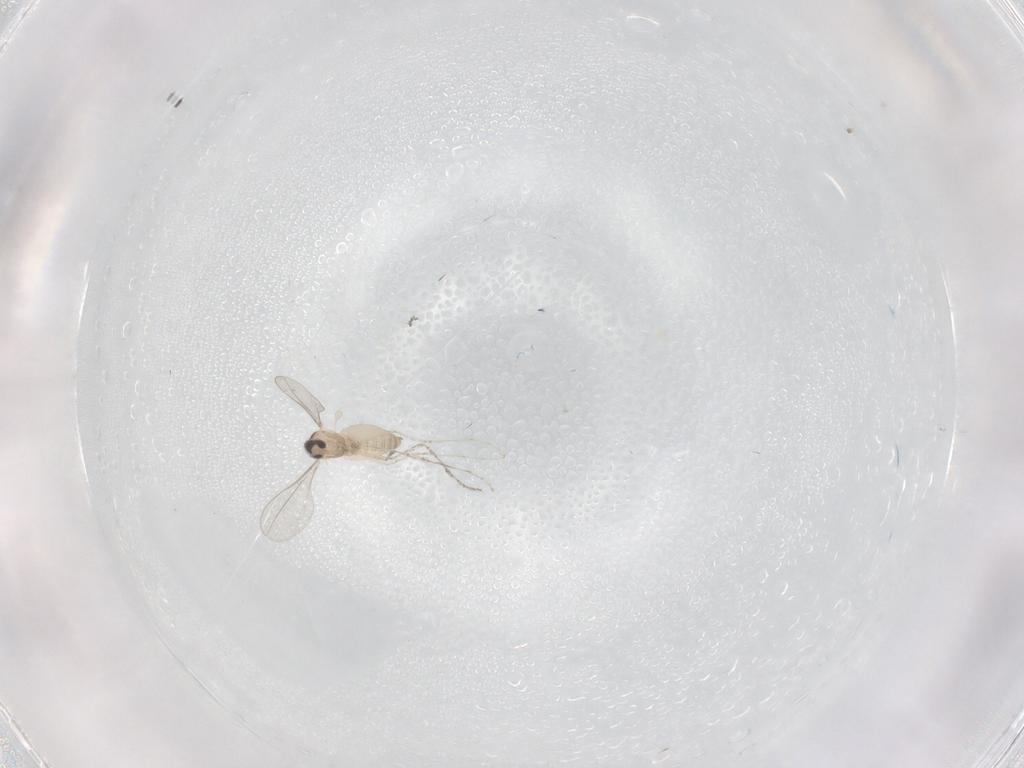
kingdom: Animalia
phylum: Arthropoda
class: Insecta
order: Diptera
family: Cecidomyiidae
